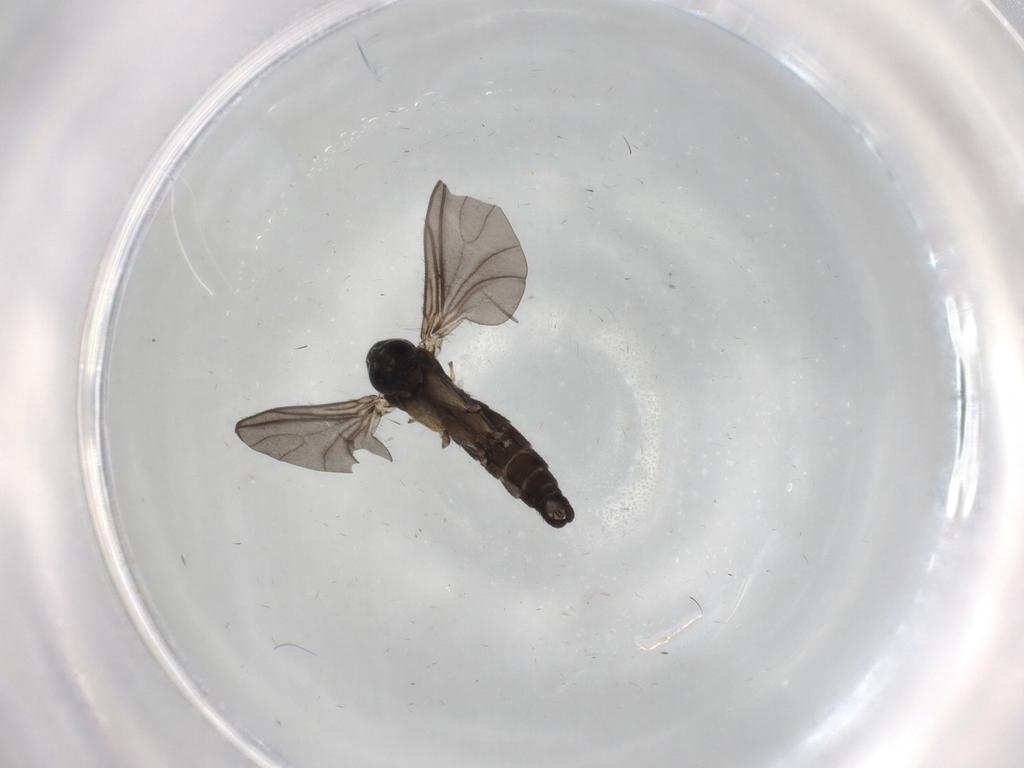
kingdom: Animalia
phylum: Arthropoda
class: Insecta
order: Diptera
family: Sciaridae
